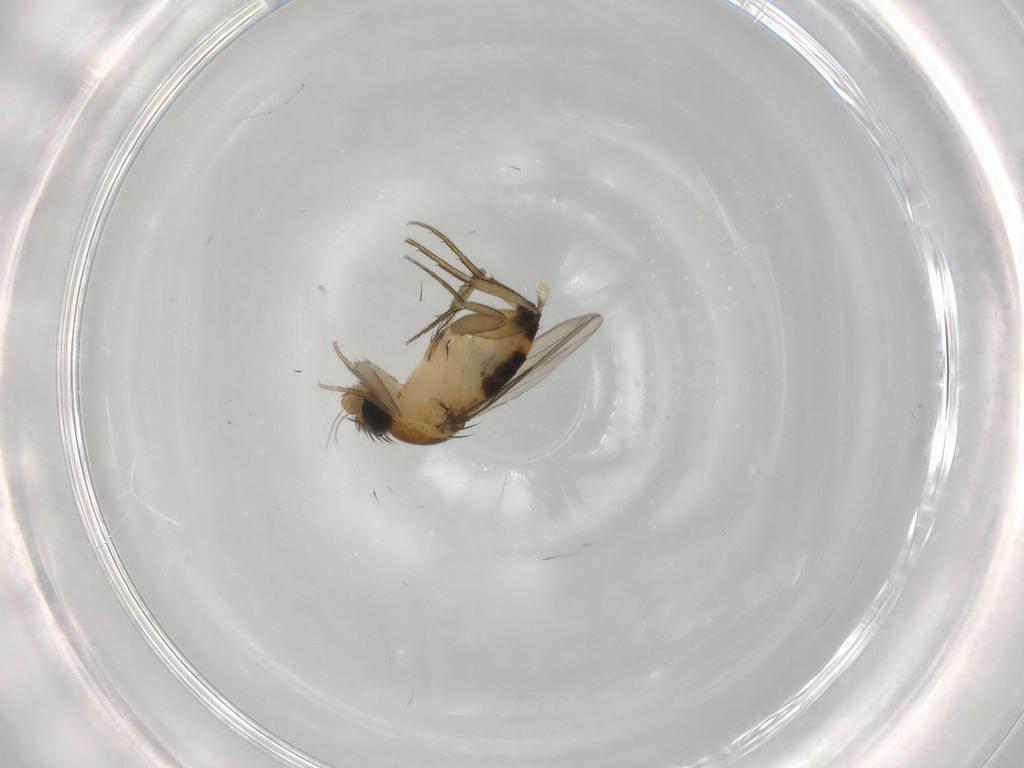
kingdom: Animalia
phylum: Arthropoda
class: Insecta
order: Diptera
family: Phoridae
